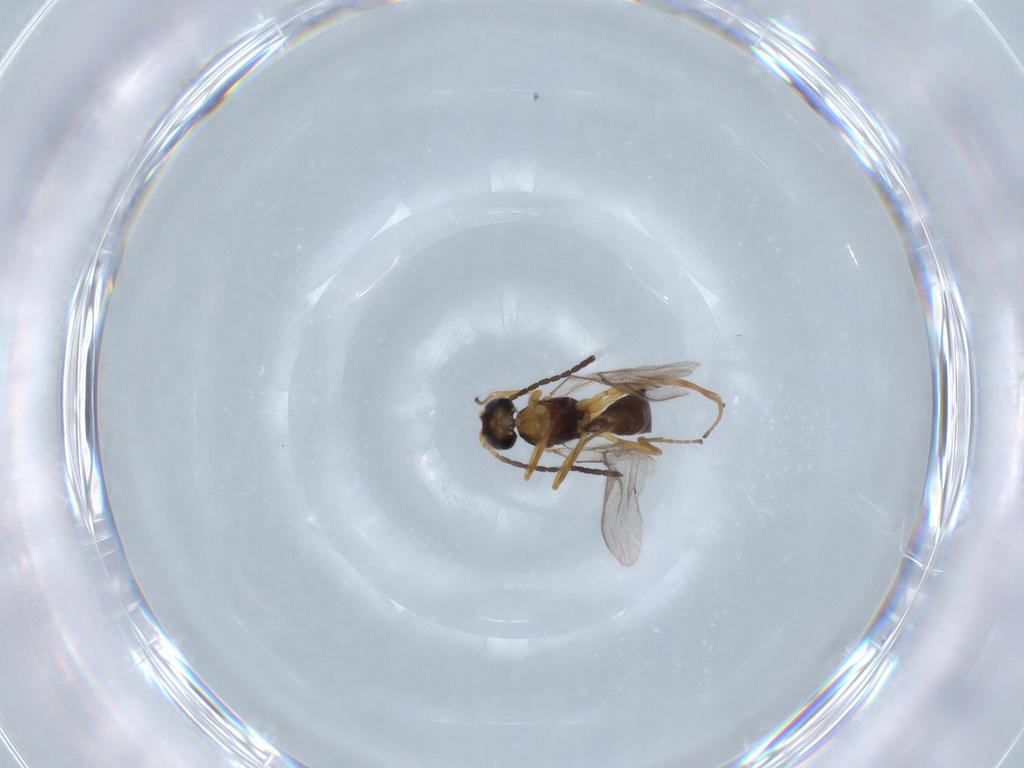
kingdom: Animalia
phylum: Arthropoda
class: Insecta
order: Hymenoptera
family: Braconidae
